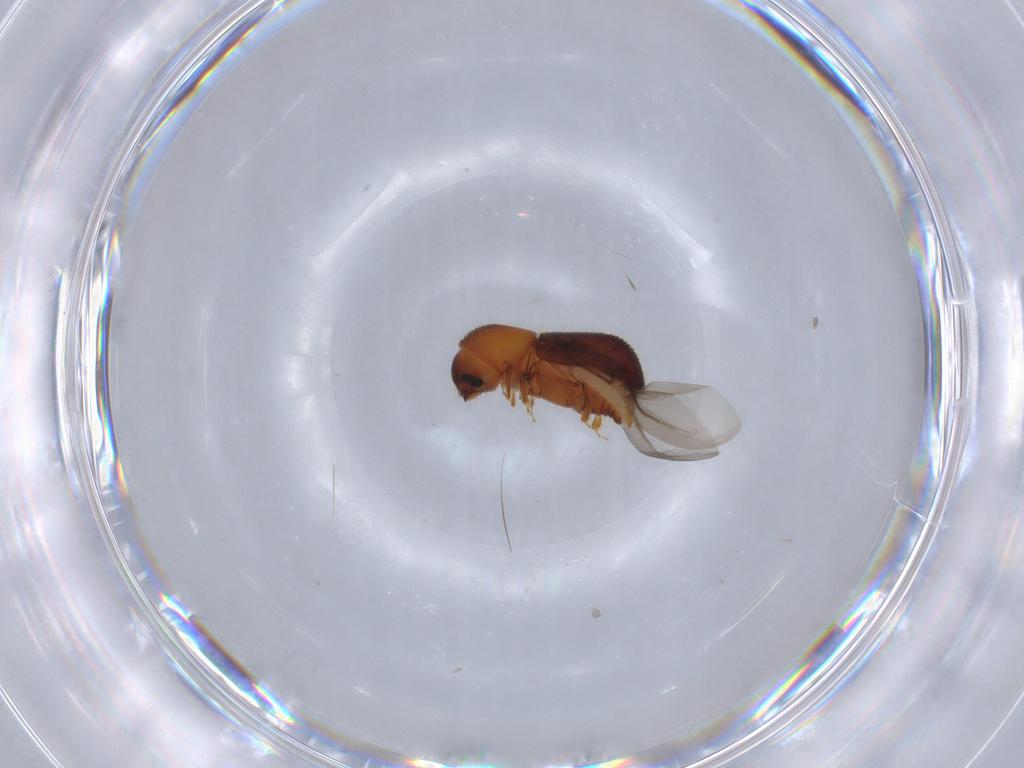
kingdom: Animalia
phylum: Arthropoda
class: Insecta
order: Coleoptera
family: Curculionidae
